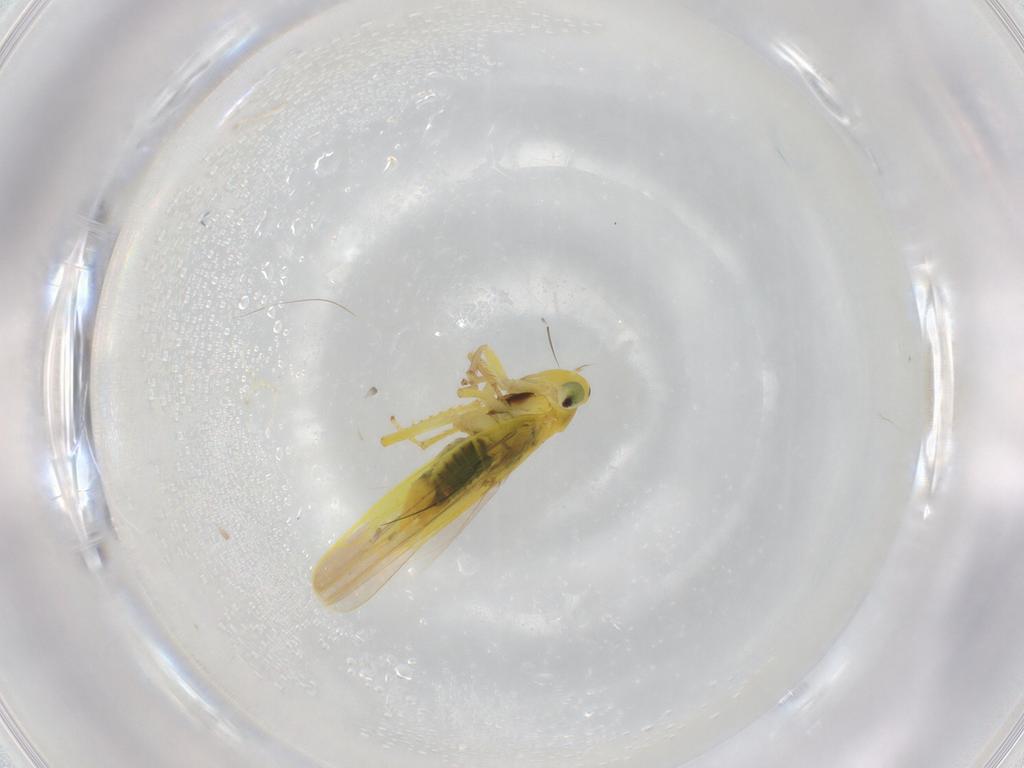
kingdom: Animalia
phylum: Arthropoda
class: Insecta
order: Hemiptera
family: Cicadellidae
